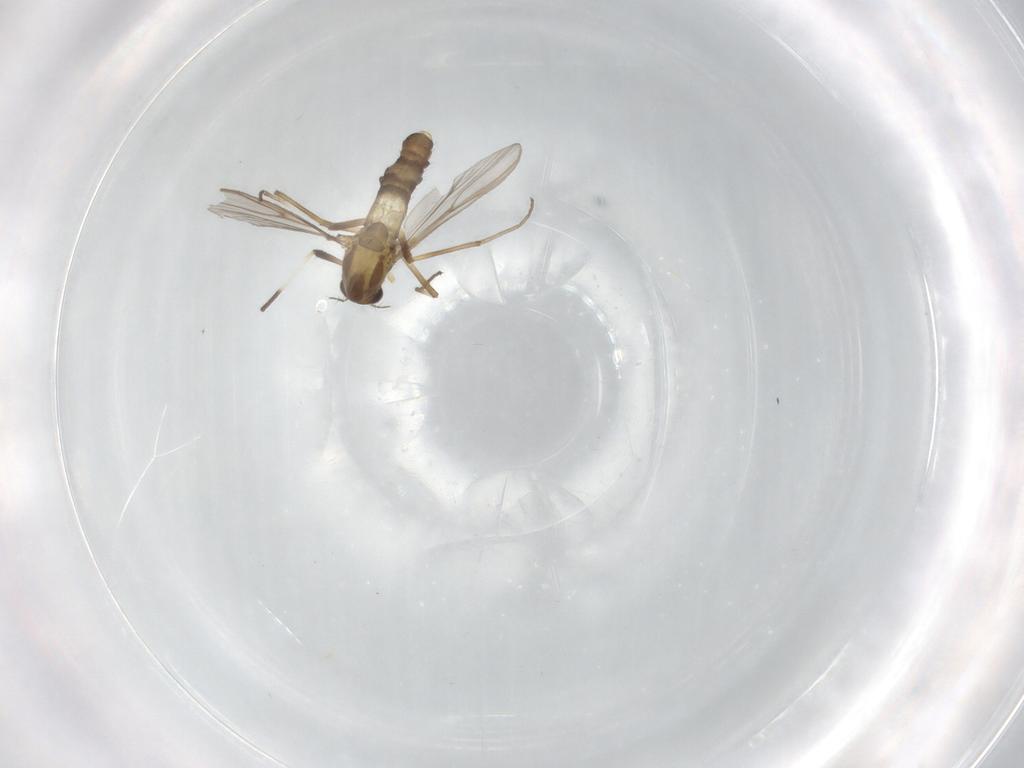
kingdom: Animalia
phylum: Arthropoda
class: Insecta
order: Diptera
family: Chironomidae
